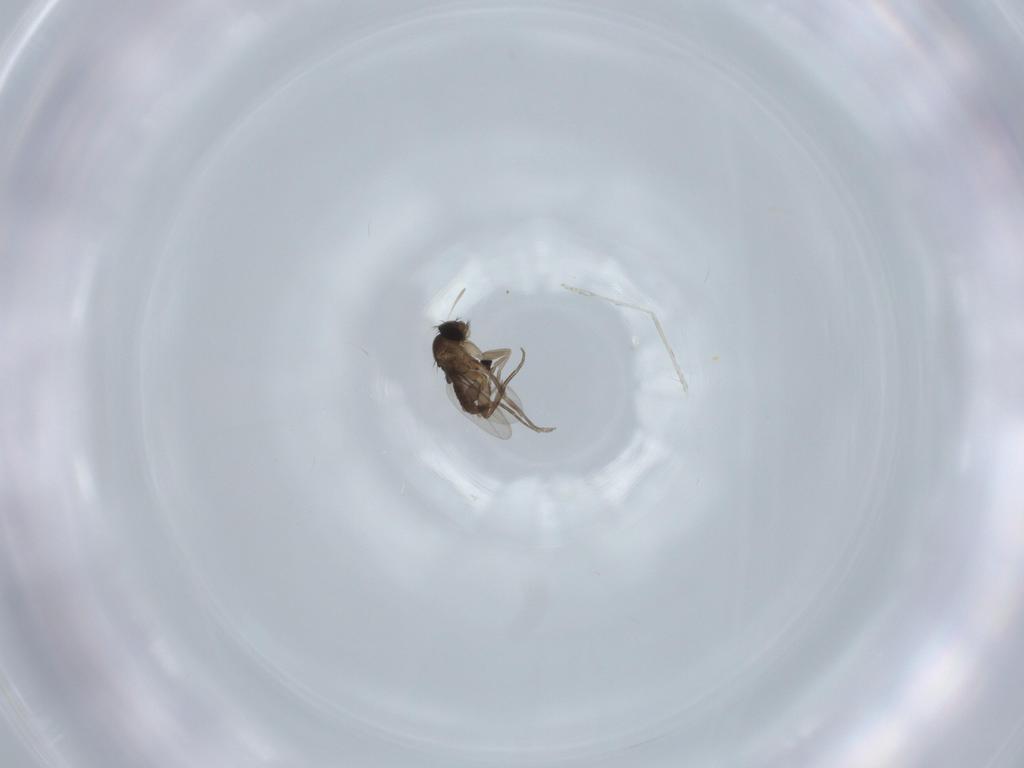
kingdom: Animalia
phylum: Arthropoda
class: Insecta
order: Diptera
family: Phoridae
